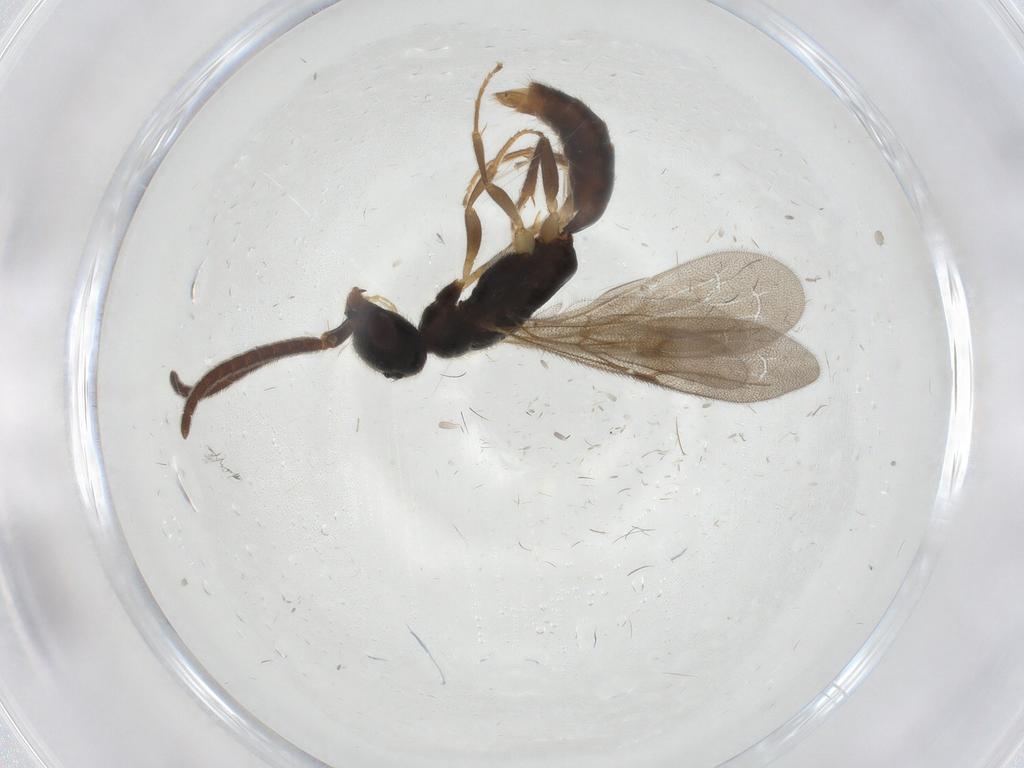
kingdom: Animalia
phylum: Arthropoda
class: Insecta
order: Hymenoptera
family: Bethylidae
